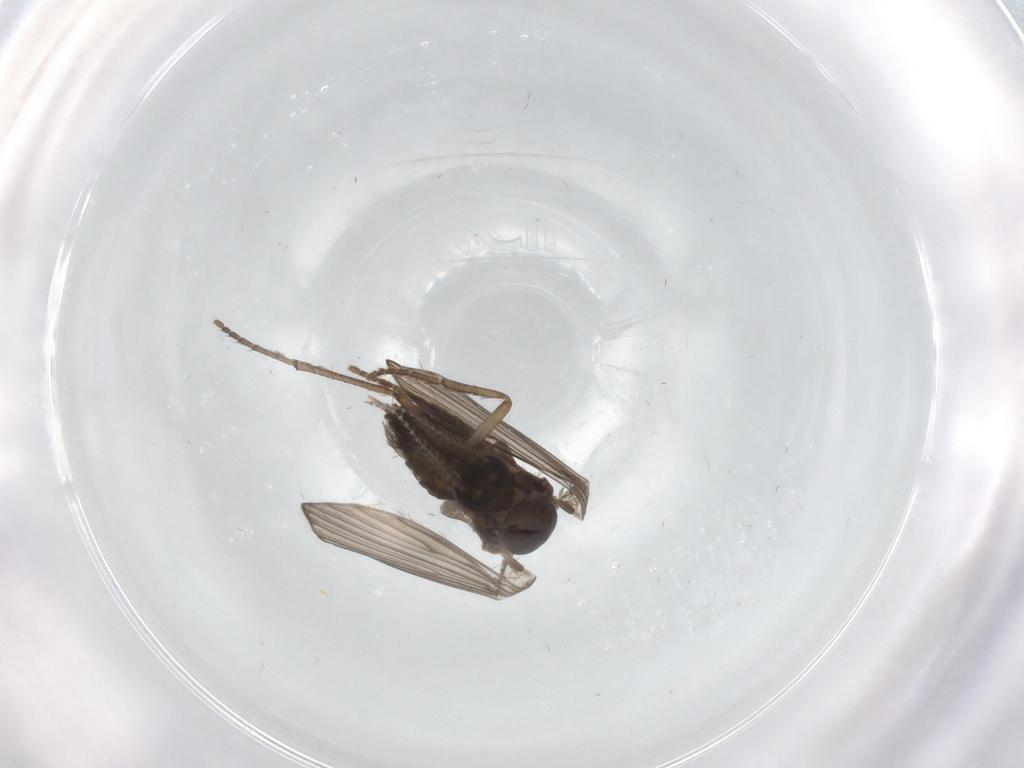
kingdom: Animalia
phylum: Arthropoda
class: Insecta
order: Diptera
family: Psychodidae
